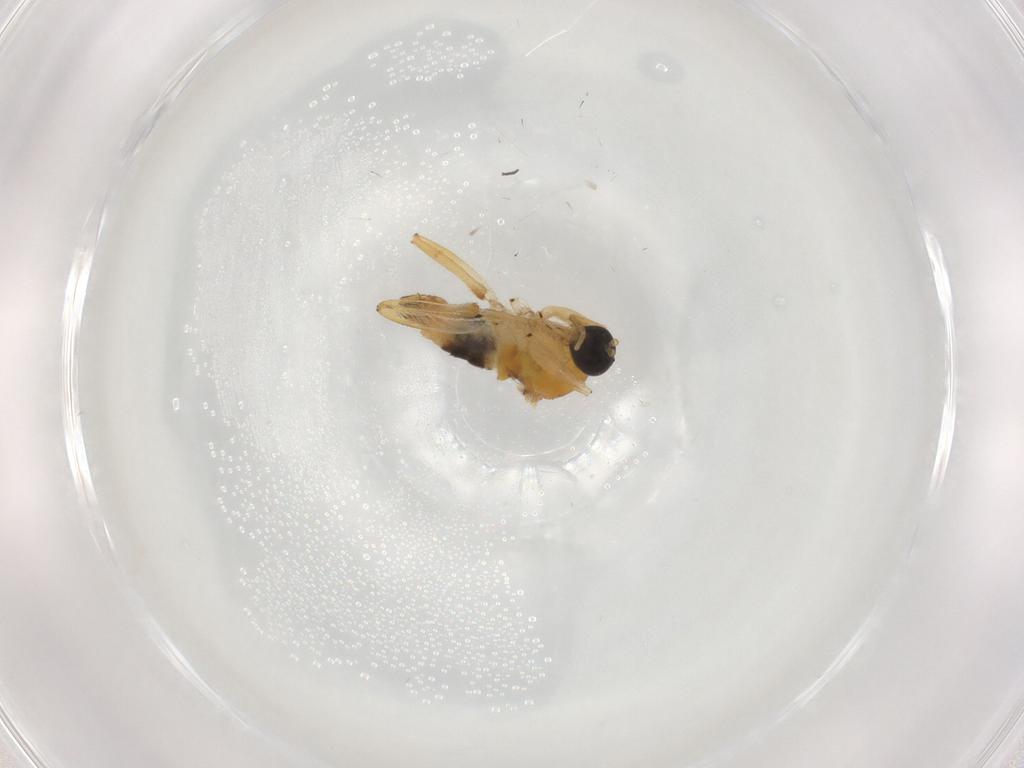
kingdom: Animalia
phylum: Arthropoda
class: Insecta
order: Diptera
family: Hybotidae
